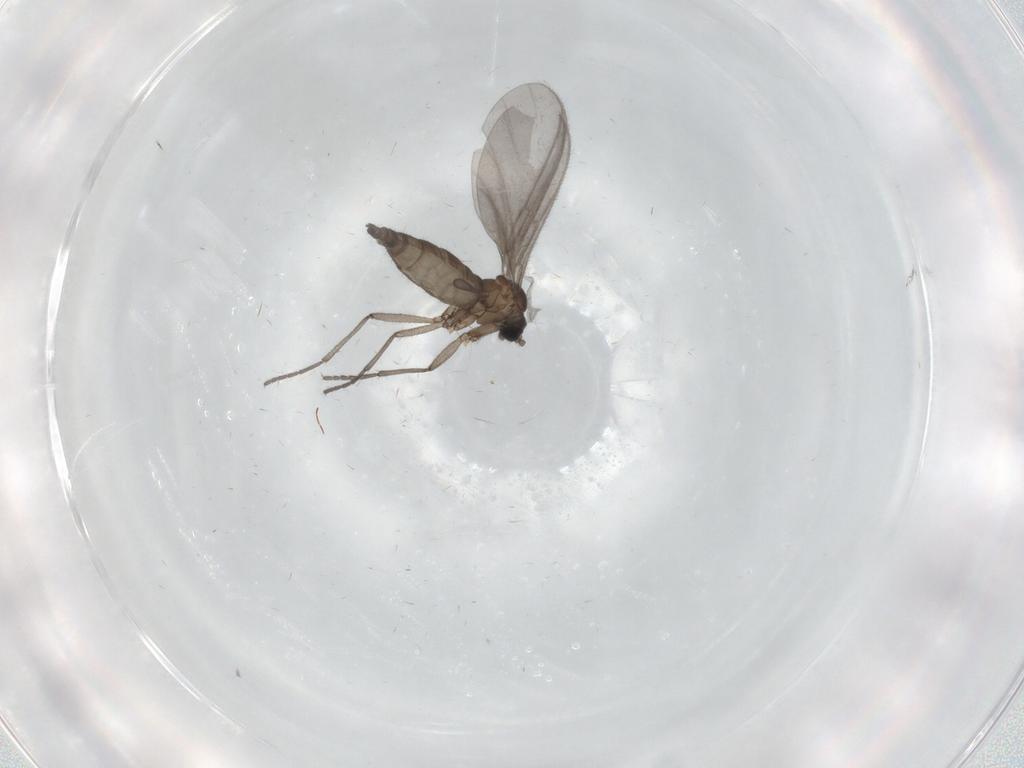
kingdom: Animalia
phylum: Arthropoda
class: Insecta
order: Diptera
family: Sciaridae
